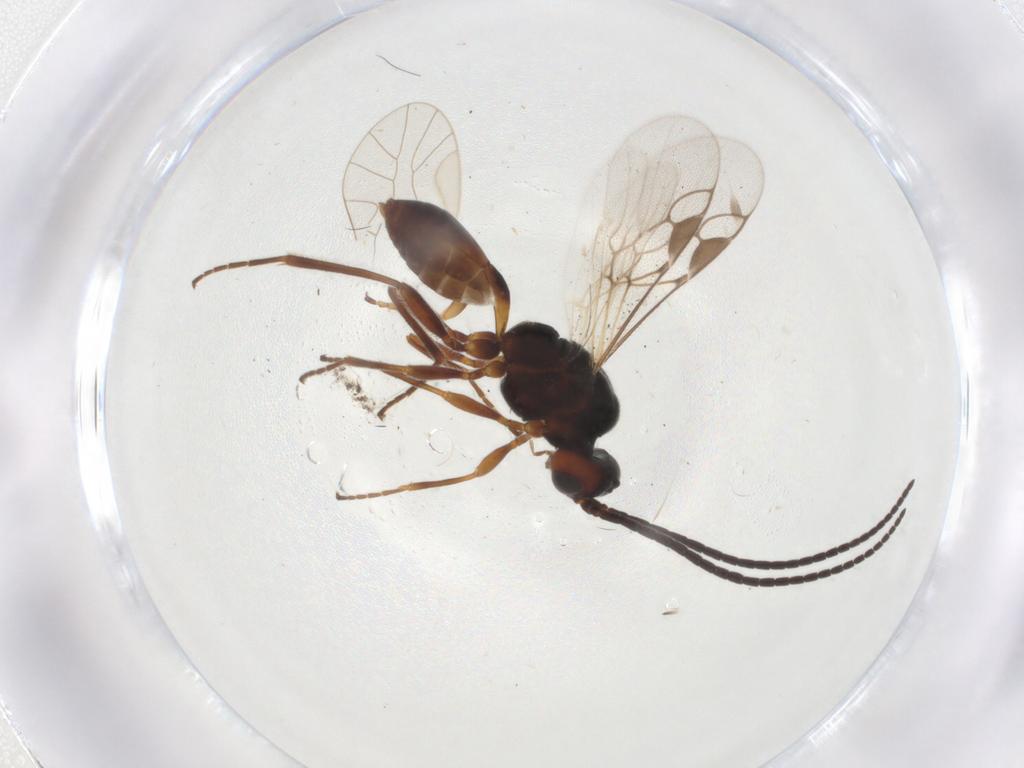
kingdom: Animalia
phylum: Arthropoda
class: Insecta
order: Hymenoptera
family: Braconidae
